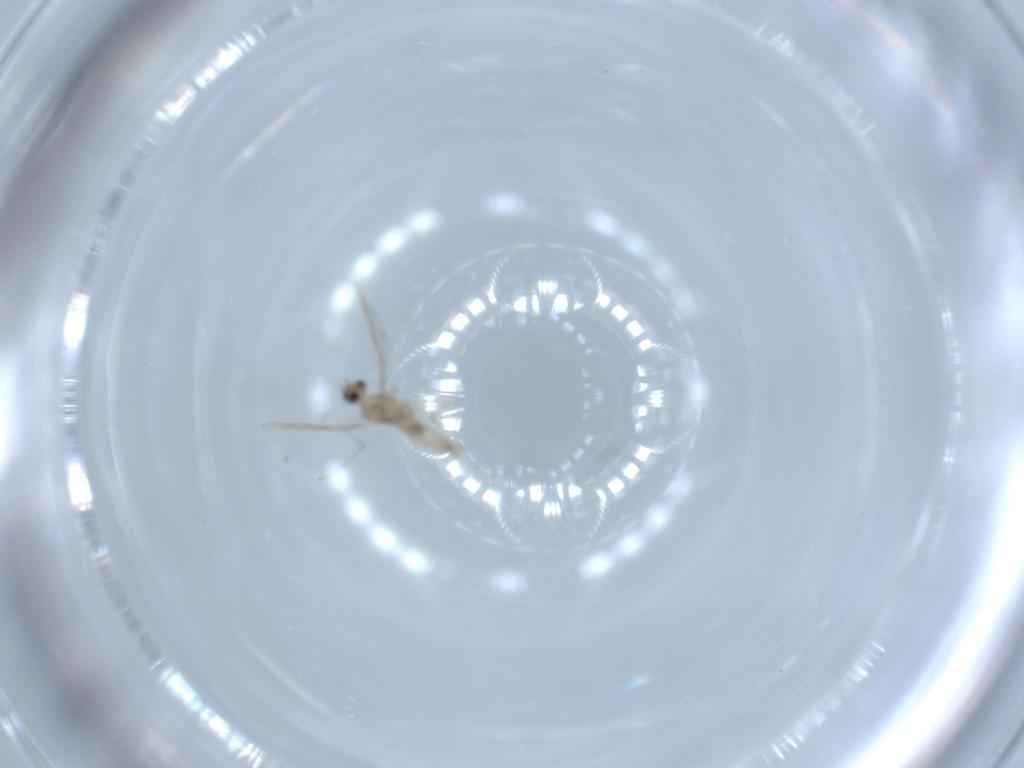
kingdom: Animalia
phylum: Arthropoda
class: Insecta
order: Diptera
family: Cecidomyiidae
